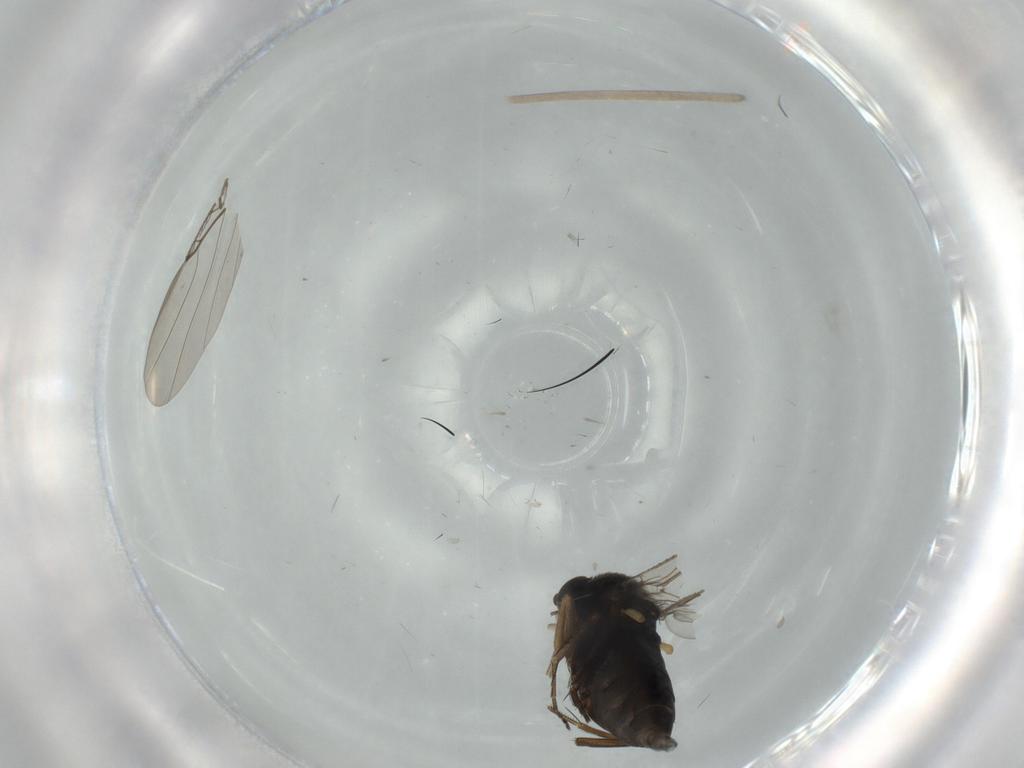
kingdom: Animalia
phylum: Arthropoda
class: Insecta
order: Diptera
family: Phoridae
